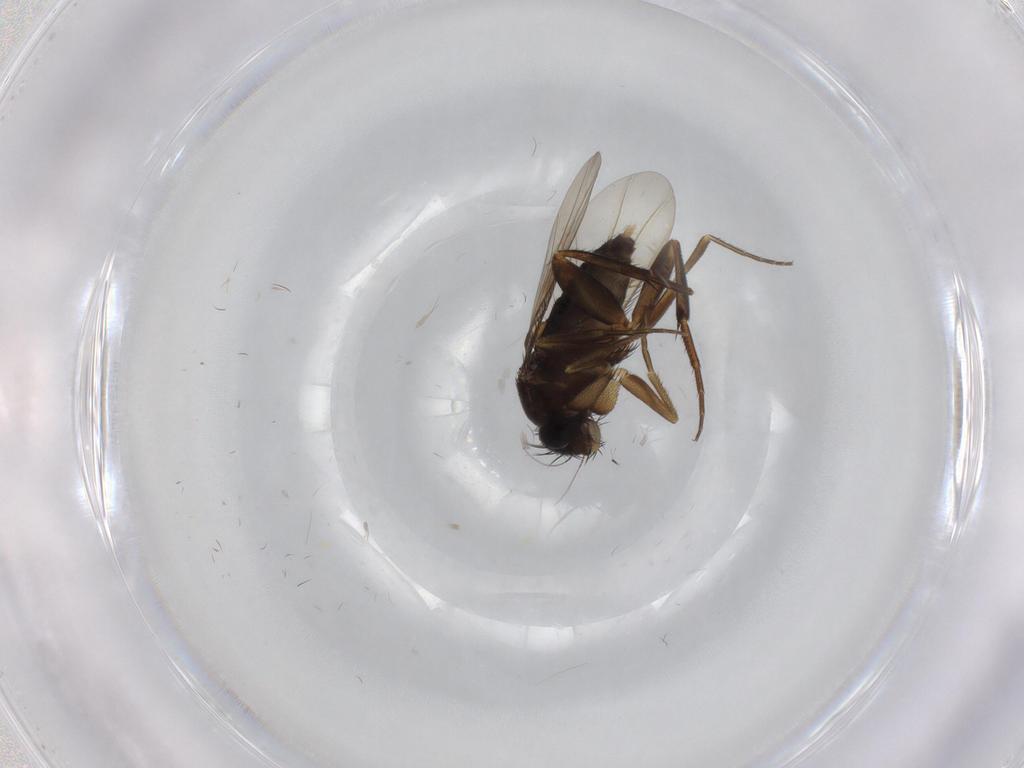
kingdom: Animalia
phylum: Arthropoda
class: Insecta
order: Diptera
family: Phoridae
